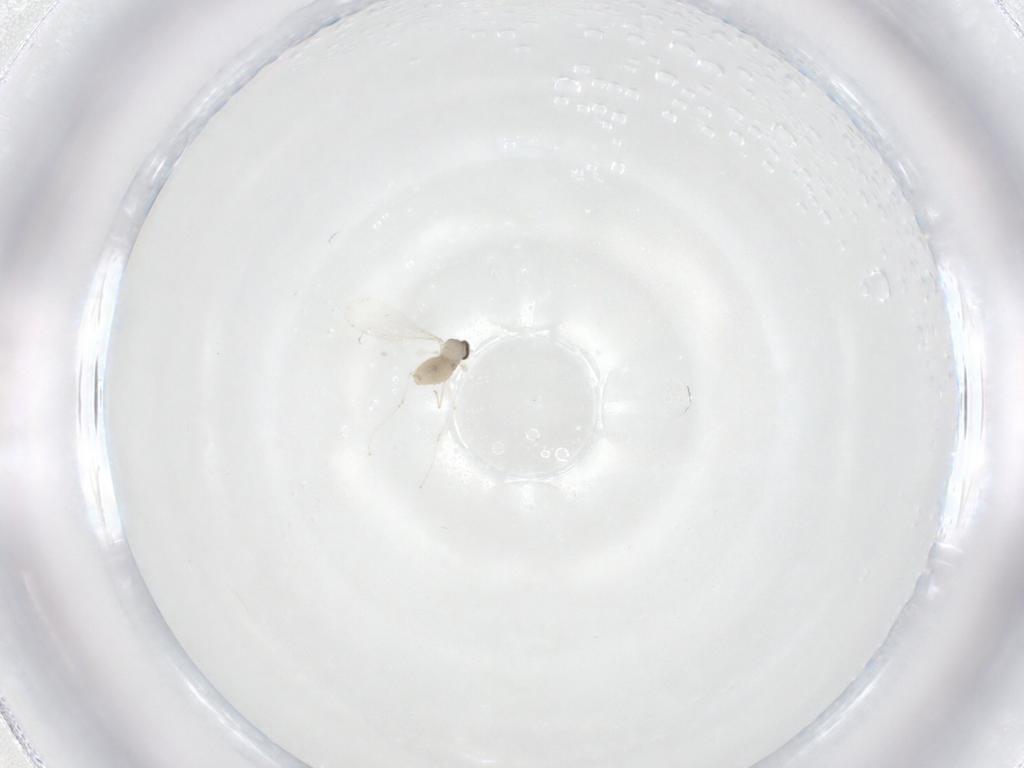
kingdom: Animalia
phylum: Arthropoda
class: Insecta
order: Diptera
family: Cecidomyiidae
